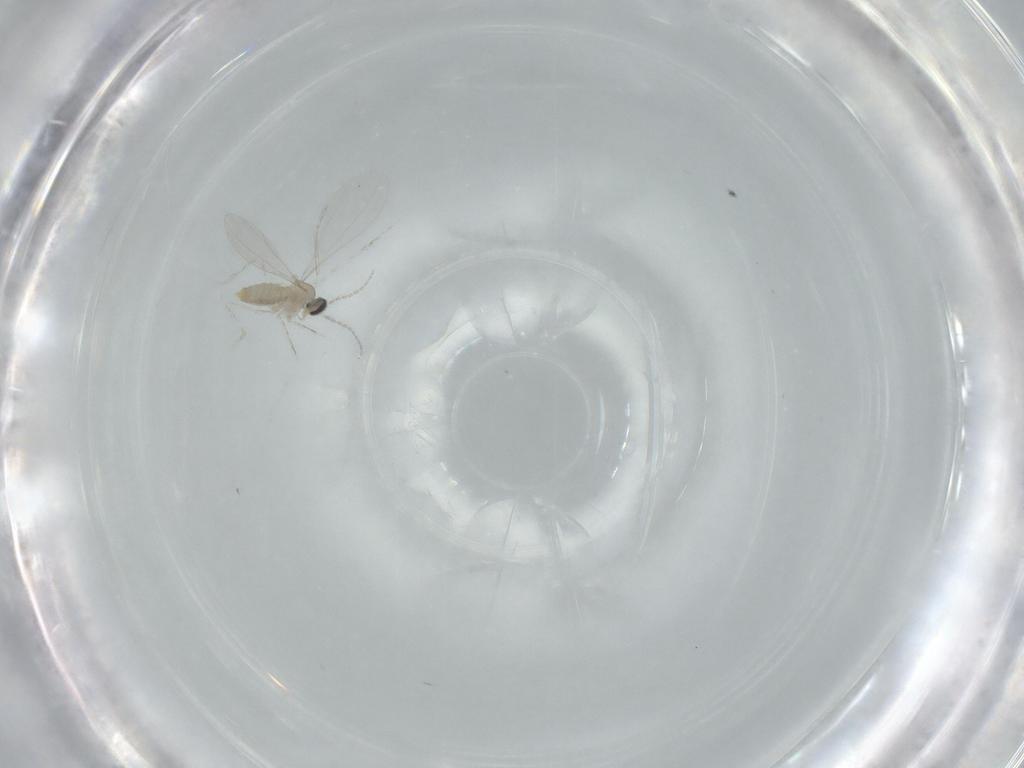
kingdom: Animalia
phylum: Arthropoda
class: Insecta
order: Diptera
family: Cecidomyiidae
